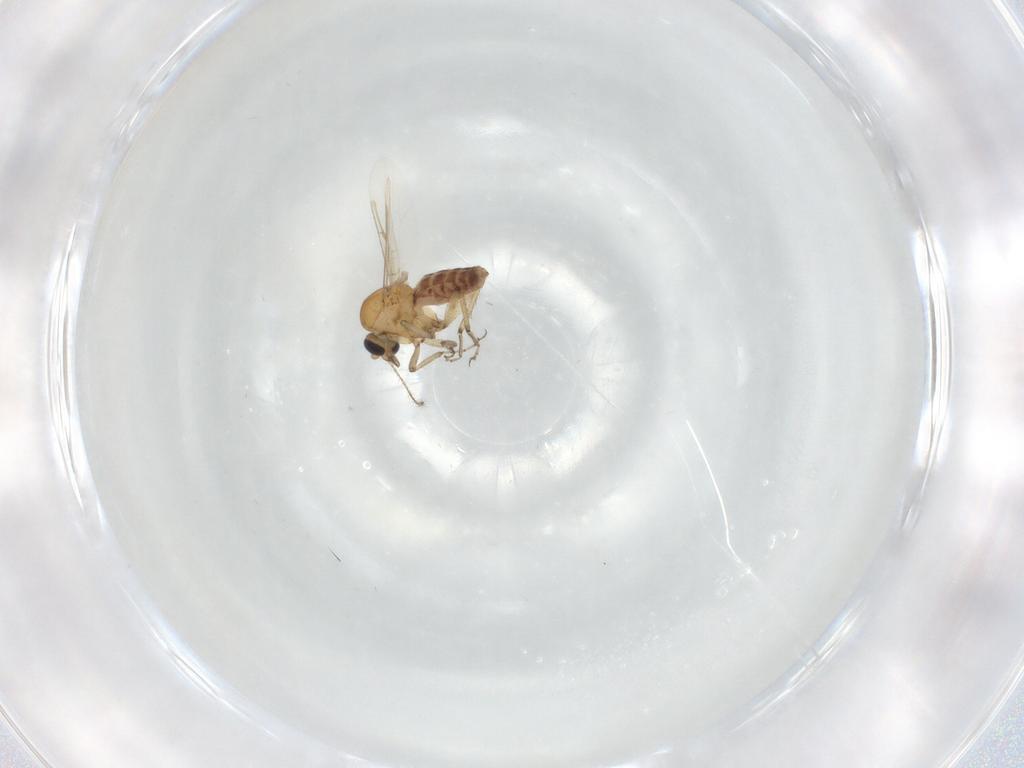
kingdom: Animalia
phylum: Arthropoda
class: Insecta
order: Diptera
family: Ceratopogonidae
